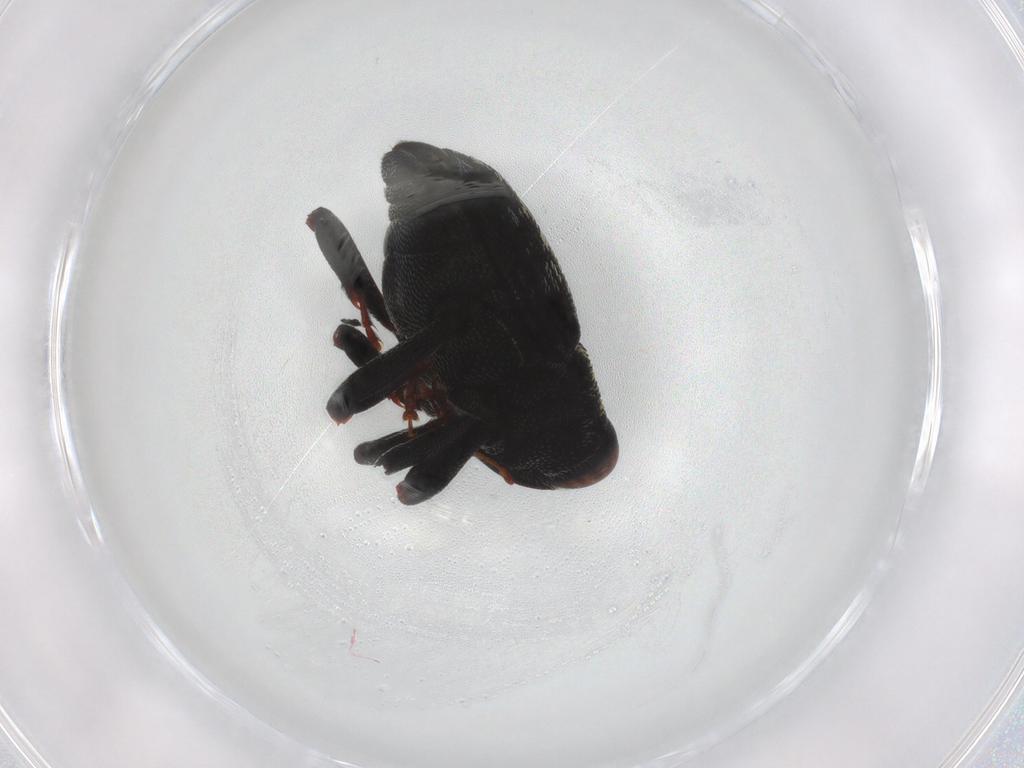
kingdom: Animalia
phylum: Arthropoda
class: Insecta
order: Coleoptera
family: Curculionidae
